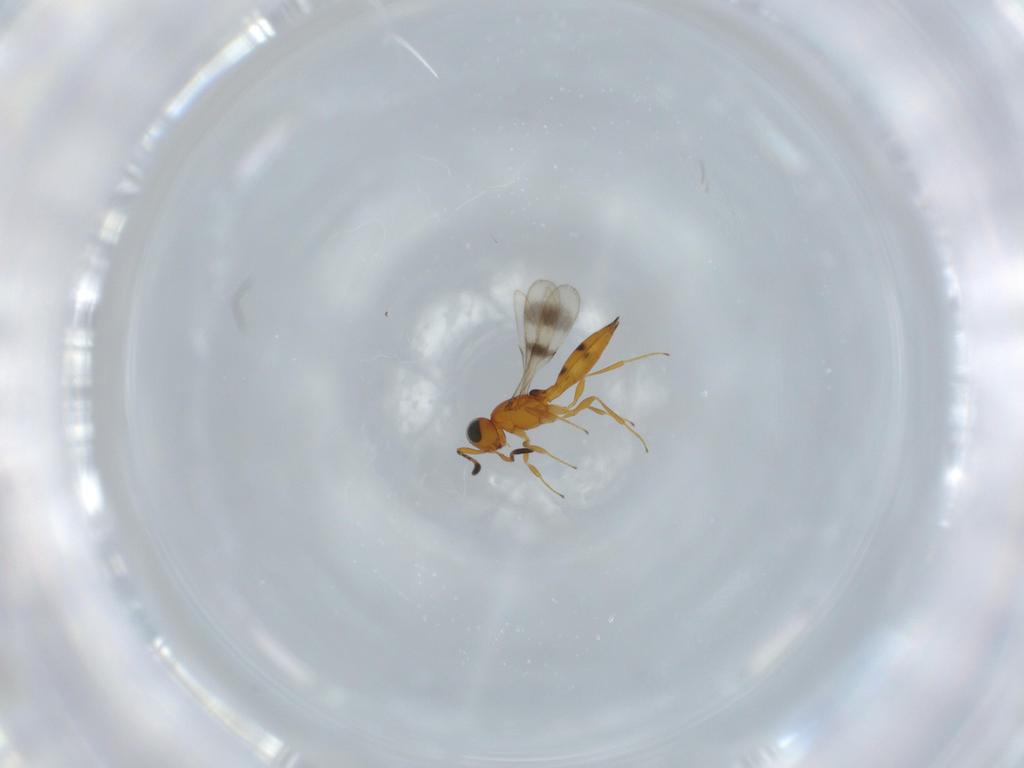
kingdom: Animalia
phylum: Arthropoda
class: Insecta
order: Hymenoptera
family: Scelionidae
